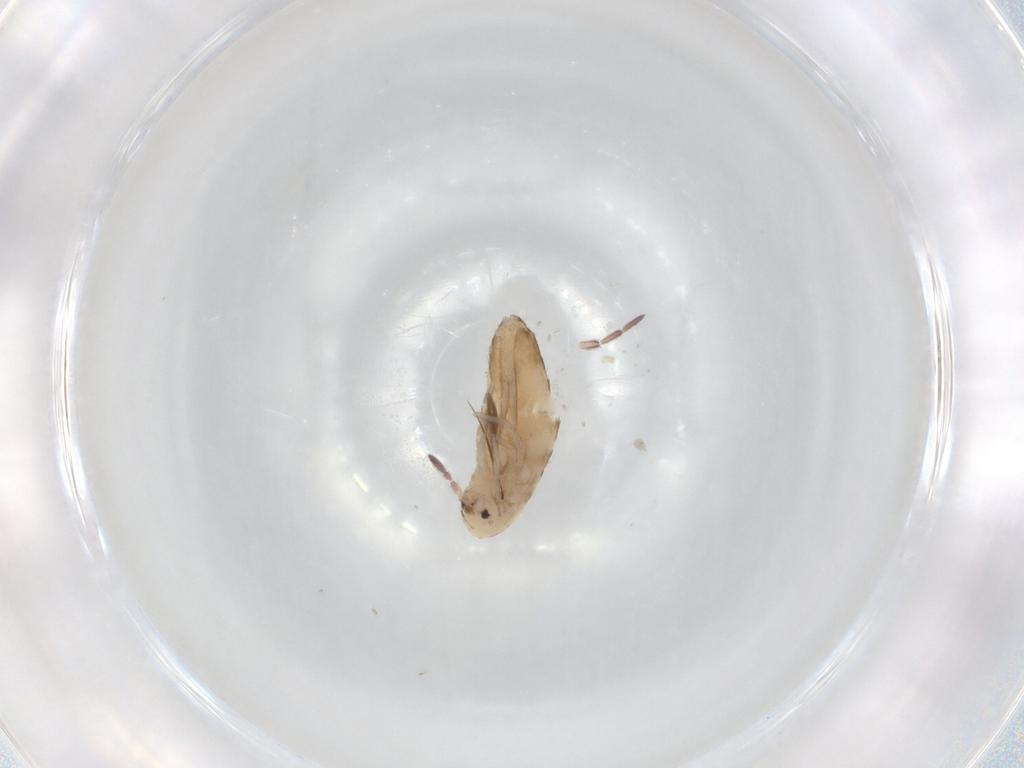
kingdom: Animalia
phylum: Arthropoda
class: Collembola
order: Entomobryomorpha
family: Entomobryidae
